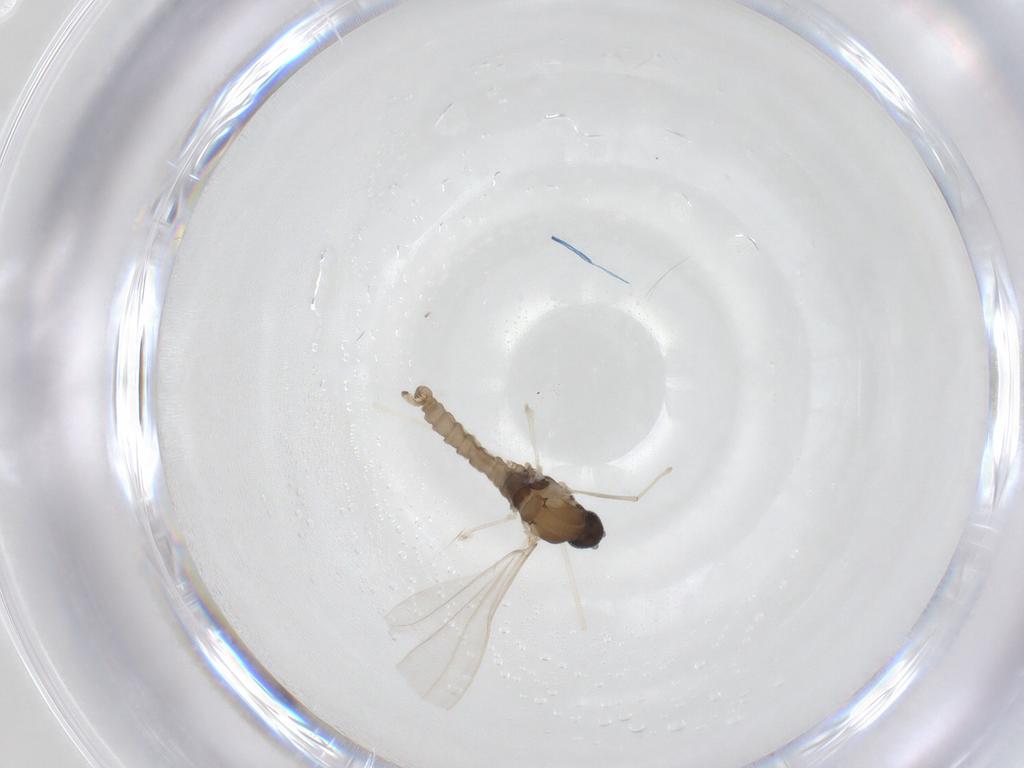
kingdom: Animalia
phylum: Arthropoda
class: Insecta
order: Diptera
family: Cecidomyiidae
